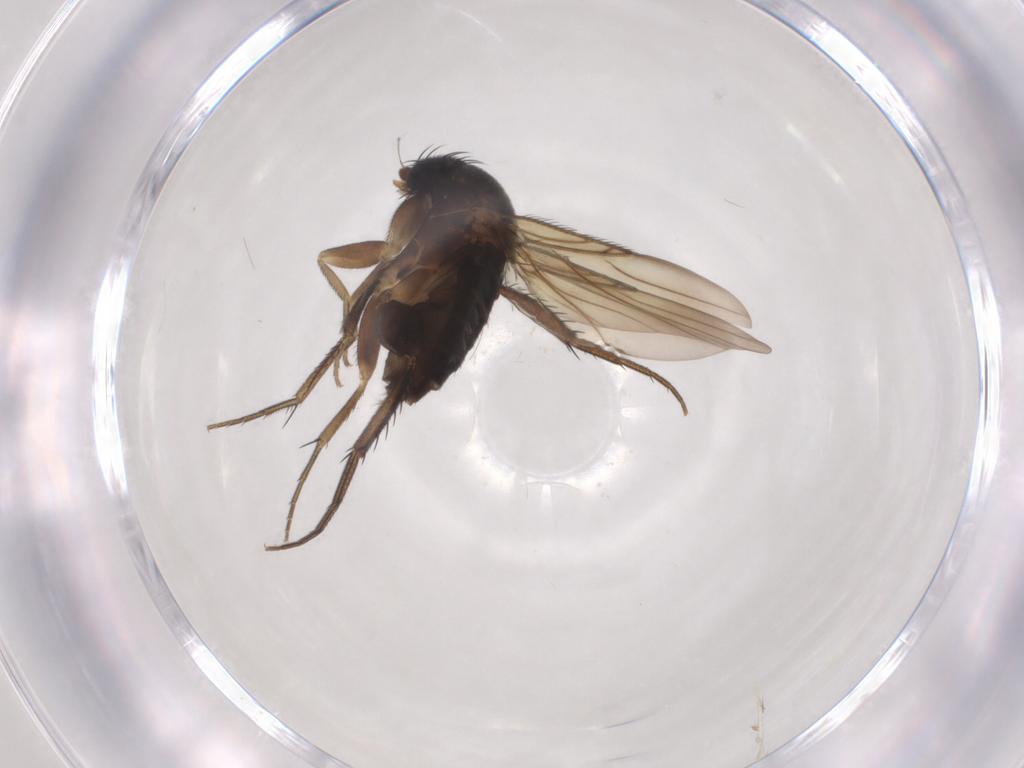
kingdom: Animalia
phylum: Arthropoda
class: Insecta
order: Diptera
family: Phoridae
